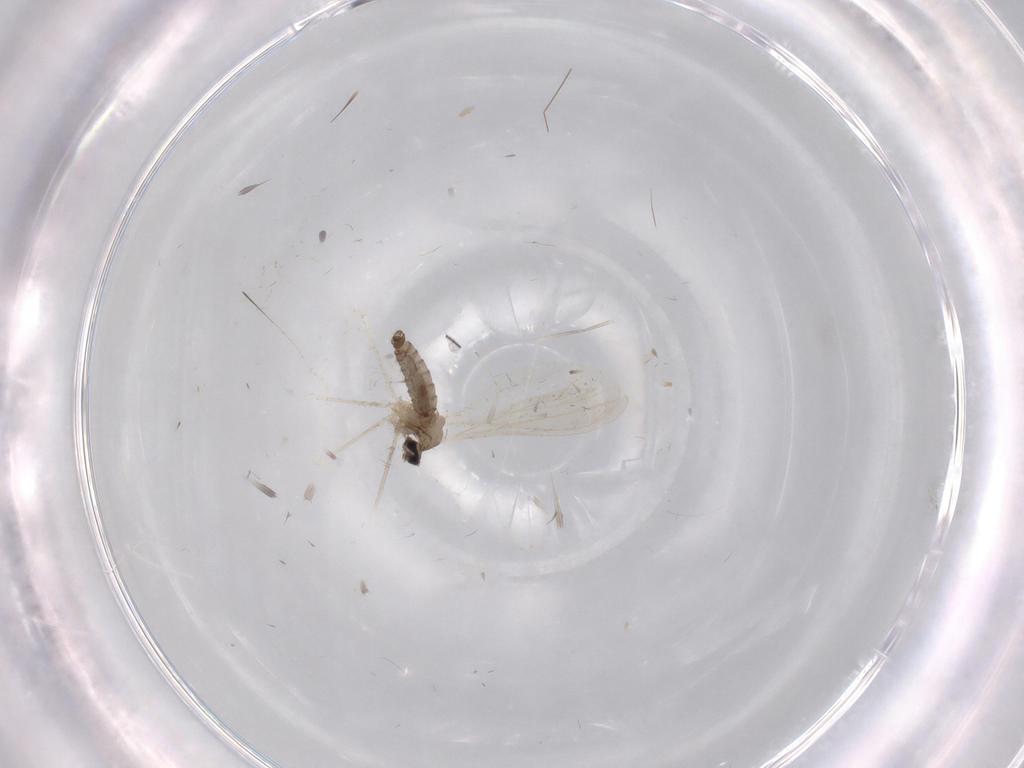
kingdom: Animalia
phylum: Arthropoda
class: Insecta
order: Diptera
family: Cecidomyiidae
